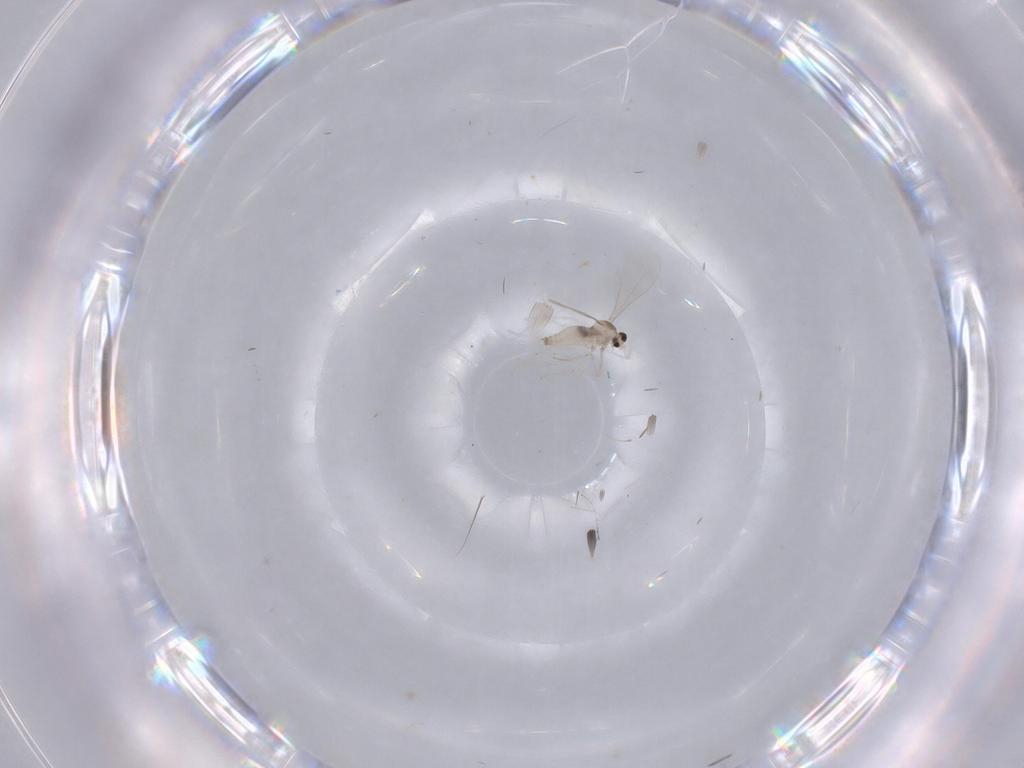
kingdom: Animalia
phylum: Arthropoda
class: Insecta
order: Diptera
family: Cecidomyiidae
